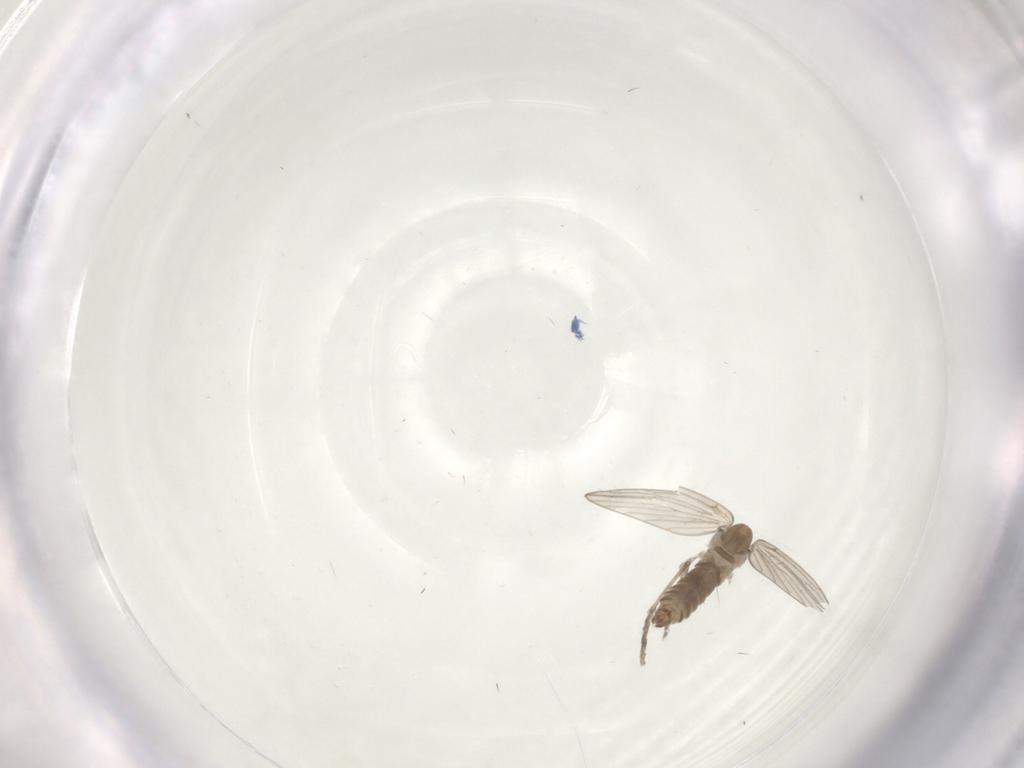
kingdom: Animalia
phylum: Arthropoda
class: Insecta
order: Diptera
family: Psychodidae
